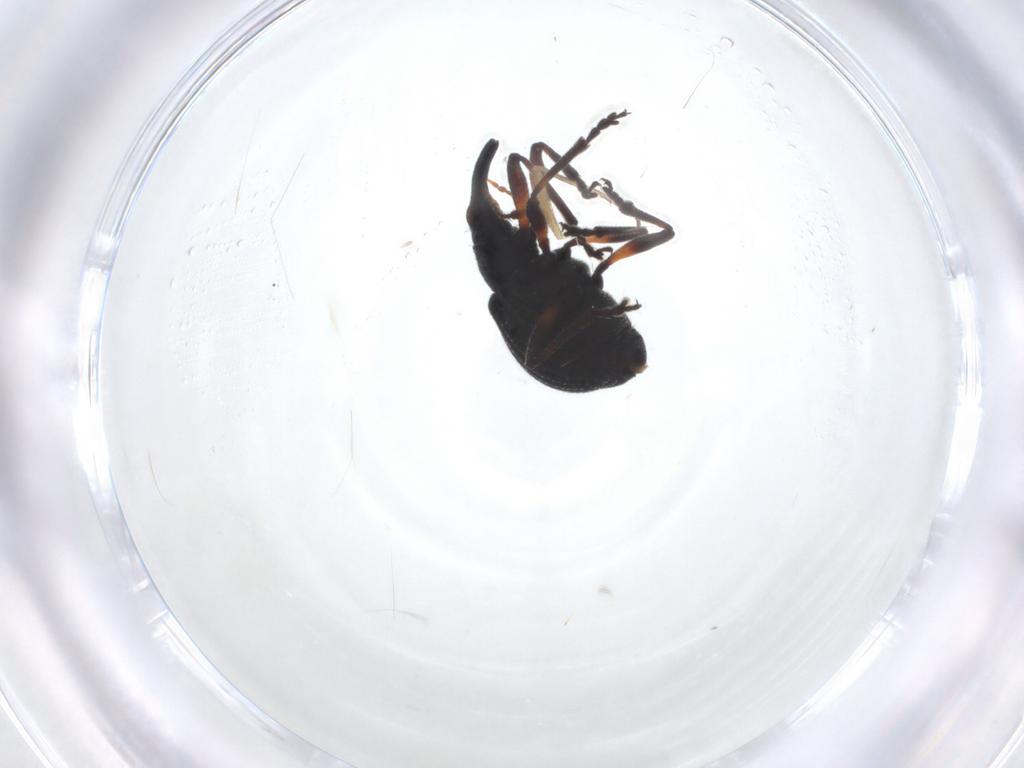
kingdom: Animalia
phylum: Arthropoda
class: Insecta
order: Coleoptera
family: Brentidae
